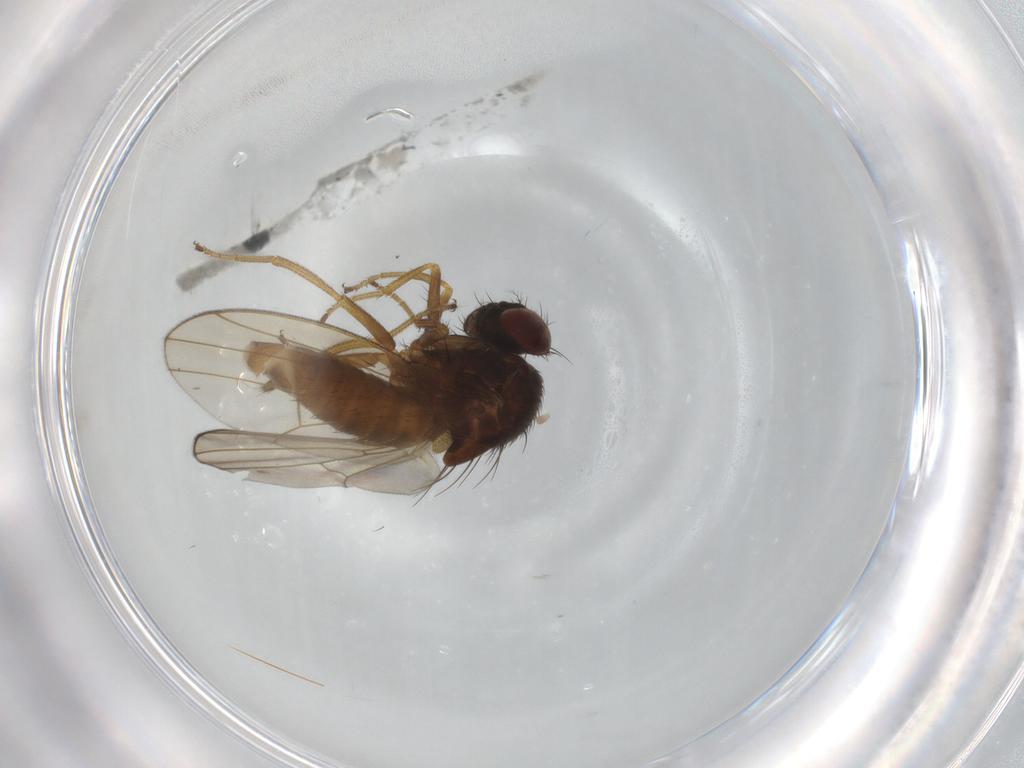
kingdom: Animalia
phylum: Arthropoda
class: Insecta
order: Diptera
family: Drosophilidae
